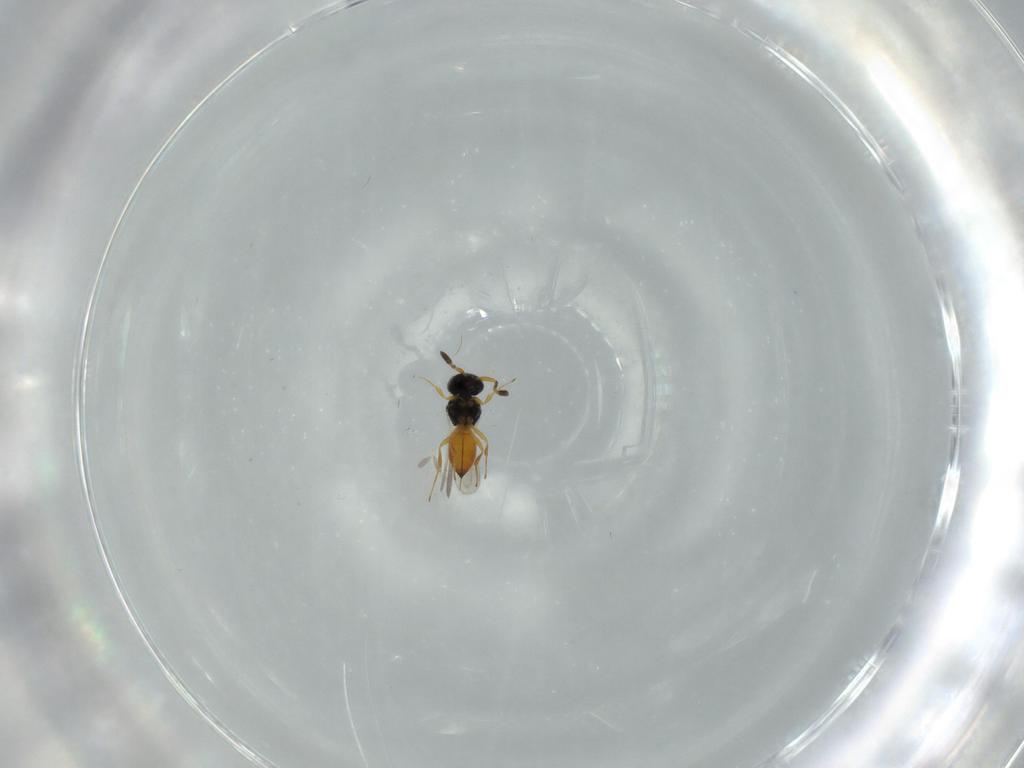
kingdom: Animalia
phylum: Arthropoda
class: Insecta
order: Hymenoptera
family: Scelionidae
